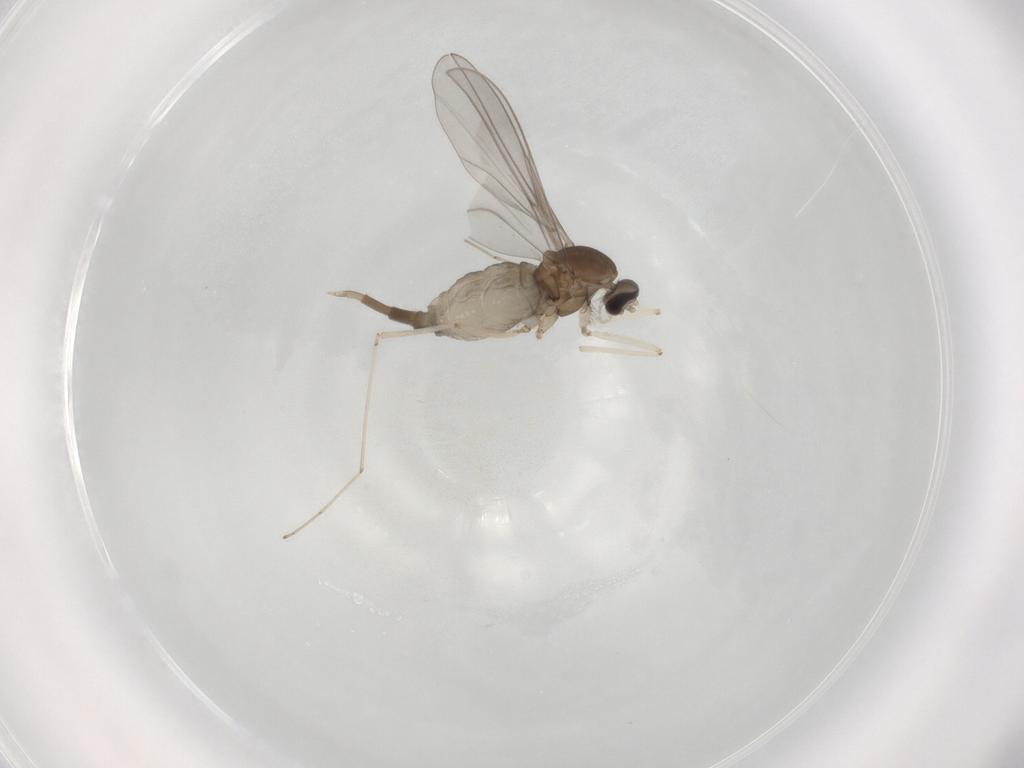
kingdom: Animalia
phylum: Arthropoda
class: Insecta
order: Diptera
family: Cecidomyiidae
